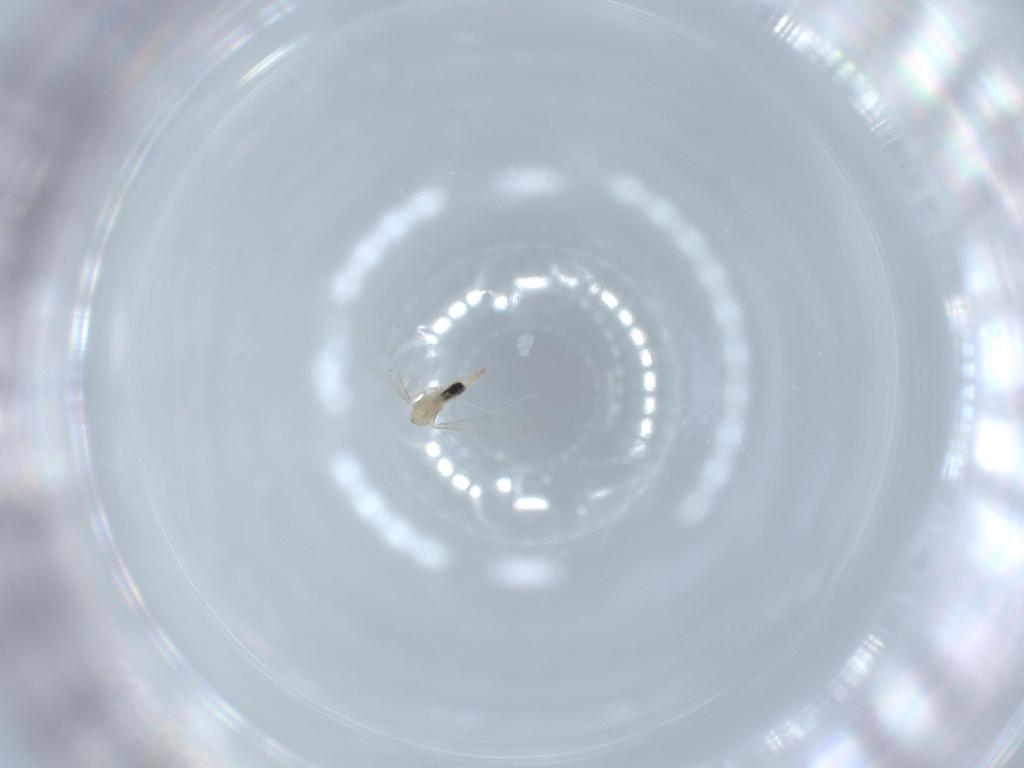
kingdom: Animalia
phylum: Arthropoda
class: Insecta
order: Diptera
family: Cecidomyiidae
